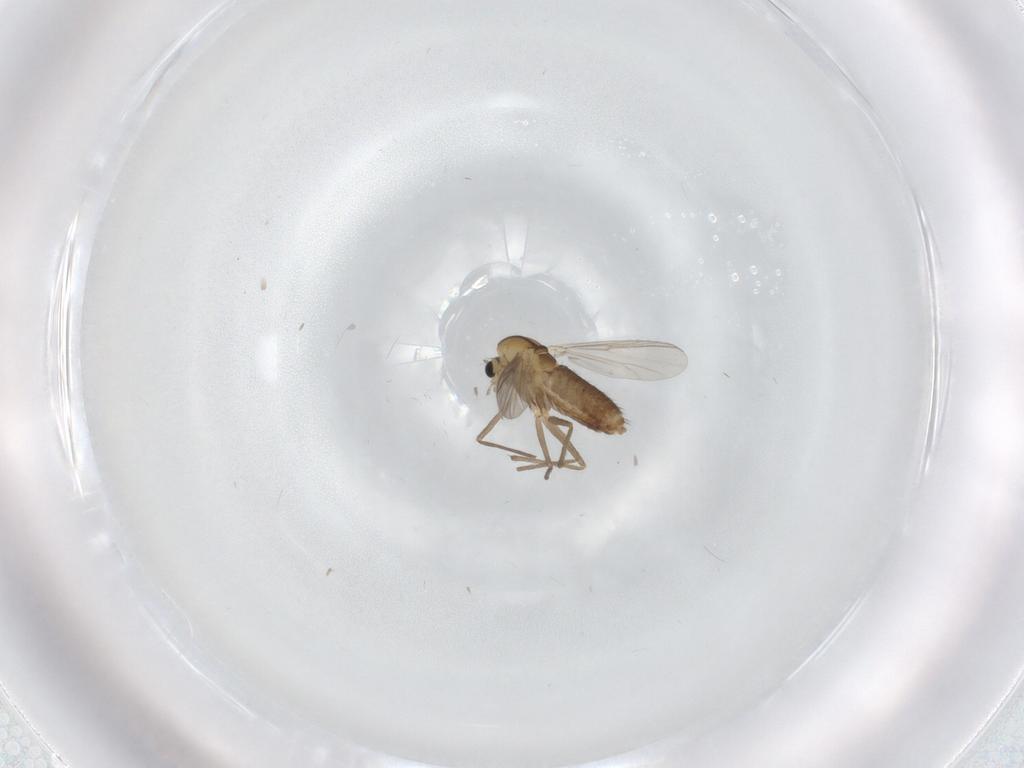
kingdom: Animalia
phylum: Arthropoda
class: Insecta
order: Diptera
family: Chironomidae
